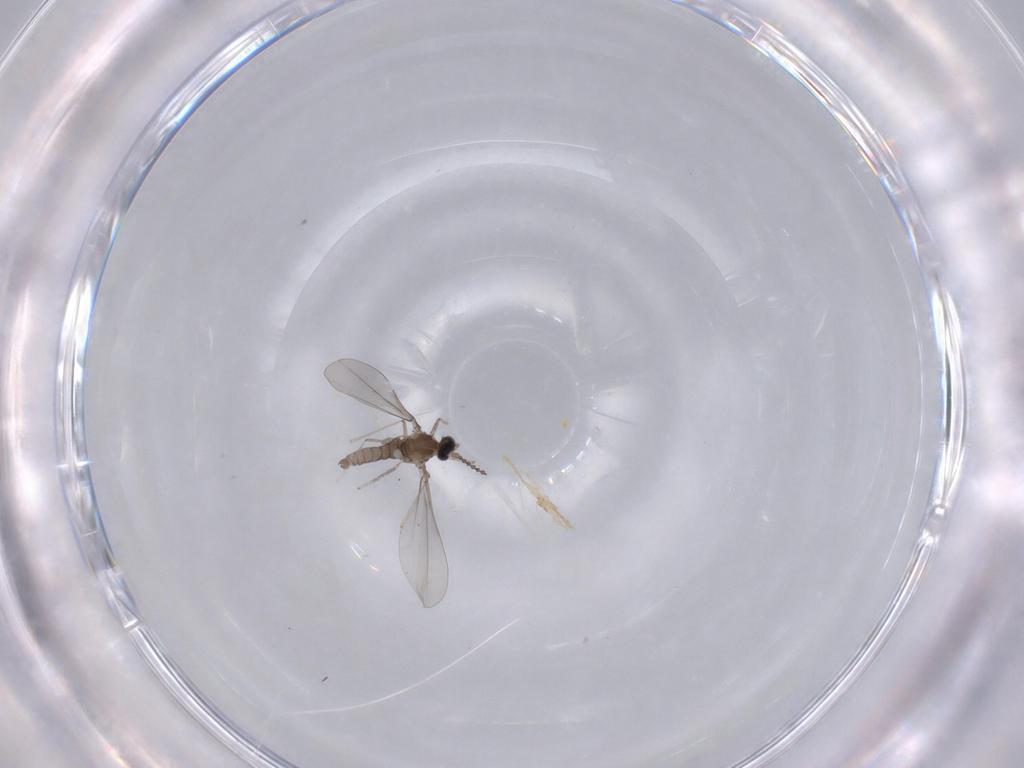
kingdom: Animalia
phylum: Arthropoda
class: Insecta
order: Diptera
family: Cecidomyiidae
